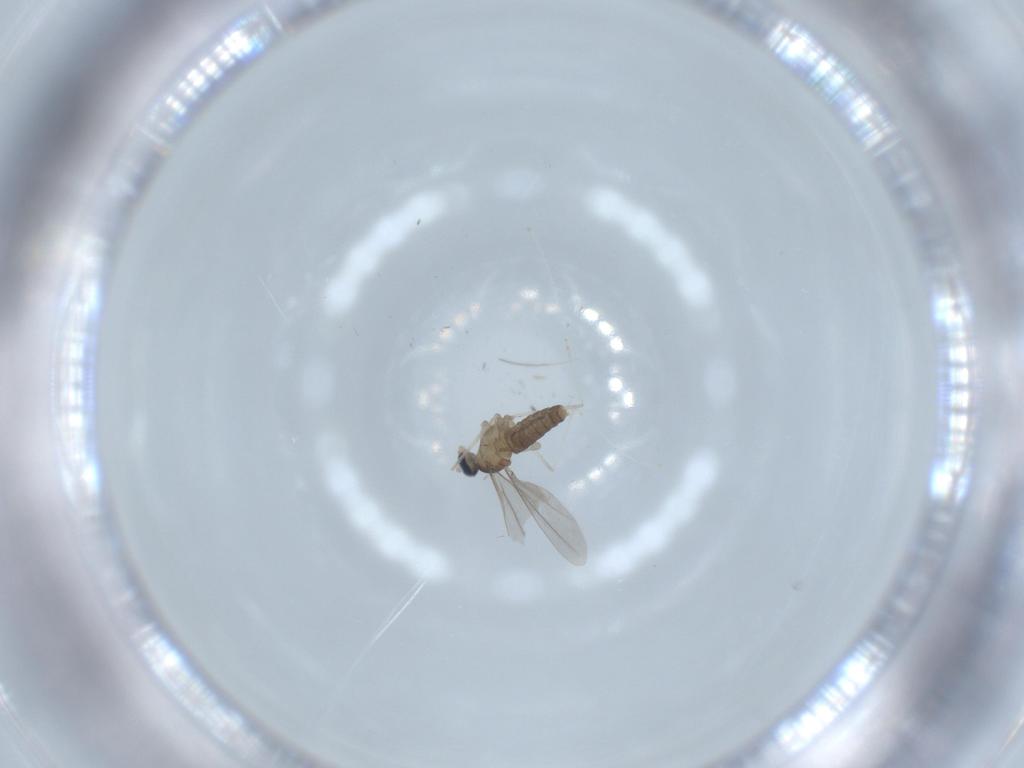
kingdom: Animalia
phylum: Arthropoda
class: Insecta
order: Diptera
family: Cecidomyiidae
